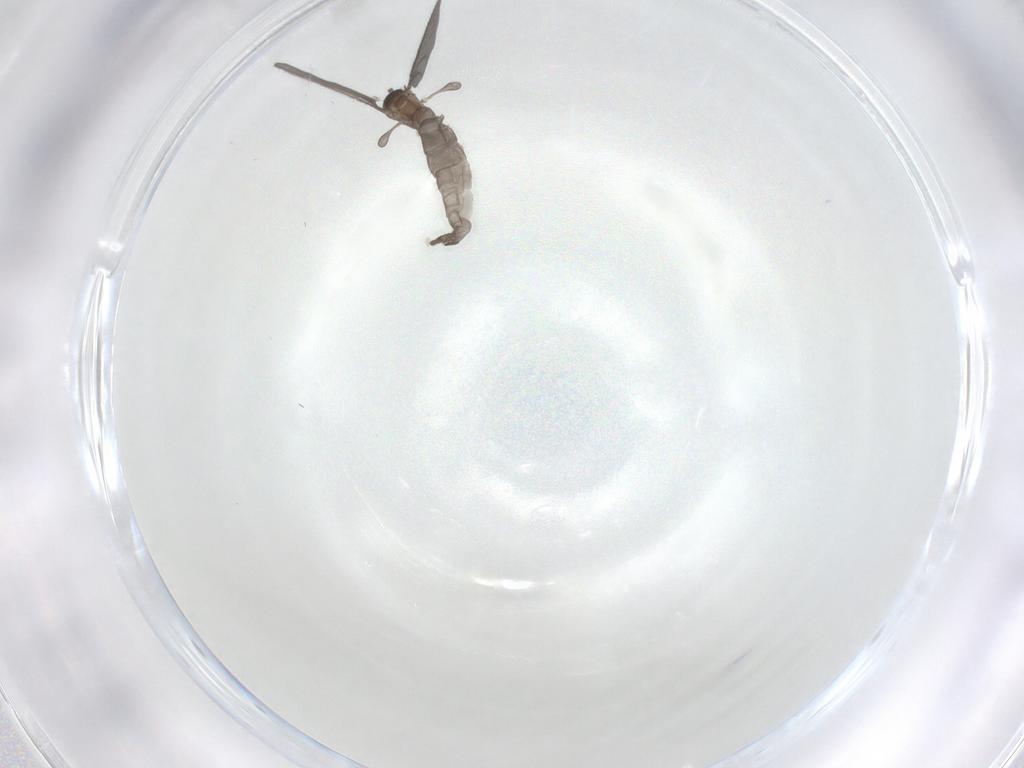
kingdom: Animalia
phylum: Arthropoda
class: Insecta
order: Diptera
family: Sciaridae
